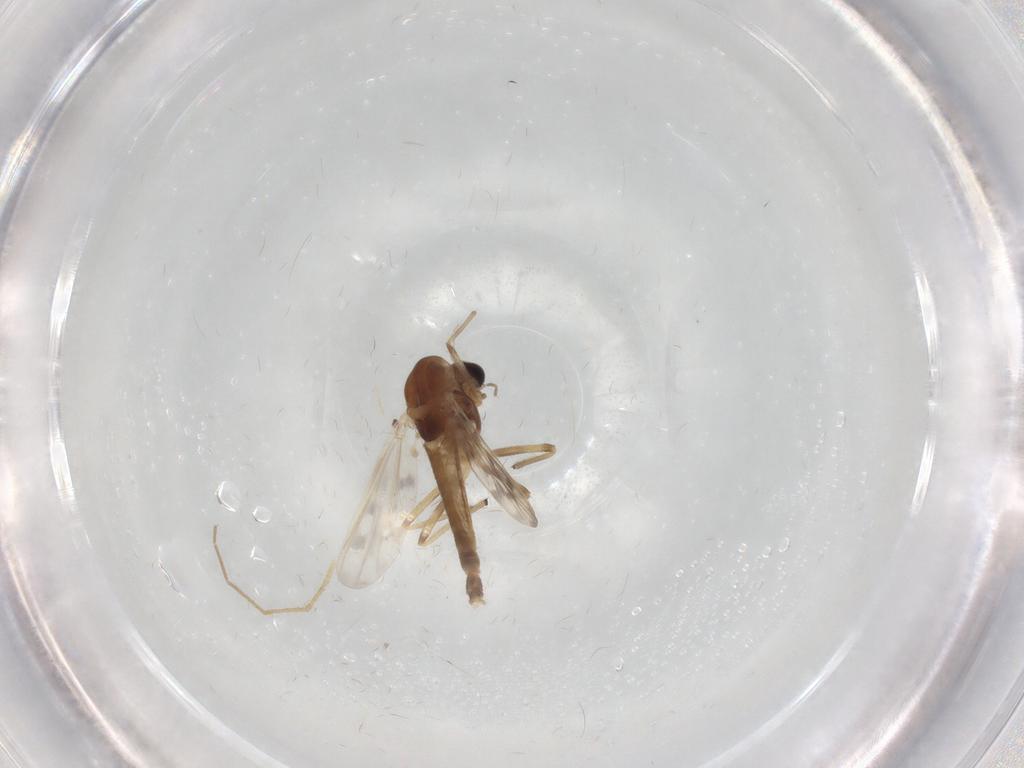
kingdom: Animalia
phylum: Arthropoda
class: Insecta
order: Diptera
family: Chironomidae
